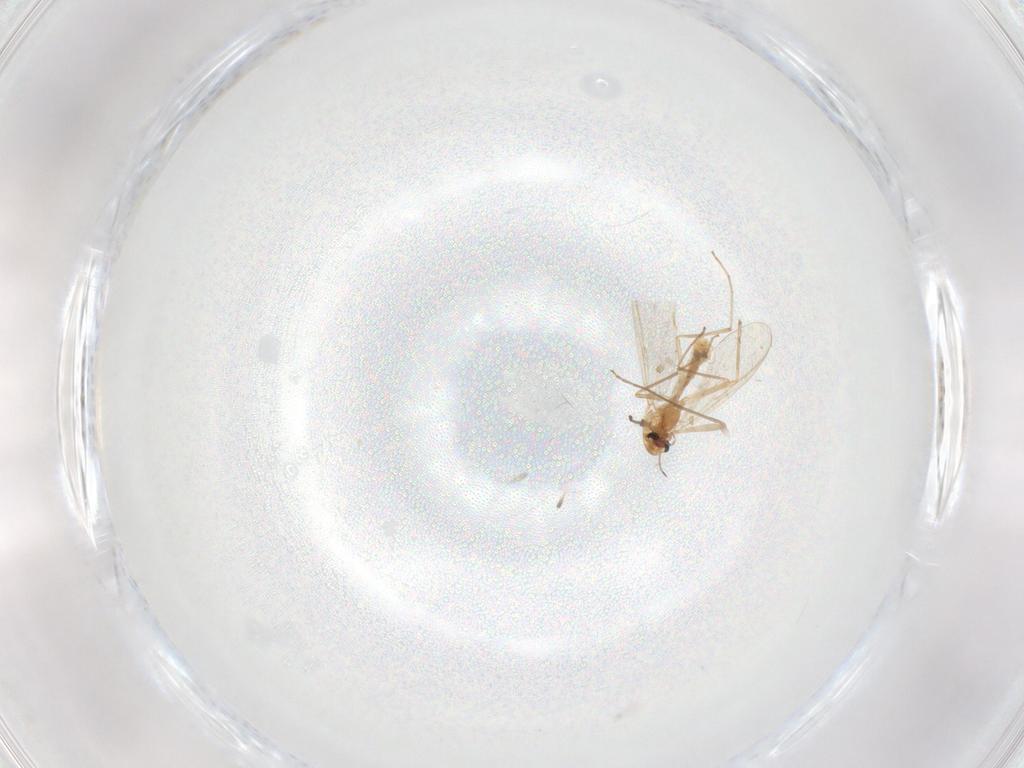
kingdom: Animalia
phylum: Arthropoda
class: Insecta
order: Diptera
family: Chironomidae
